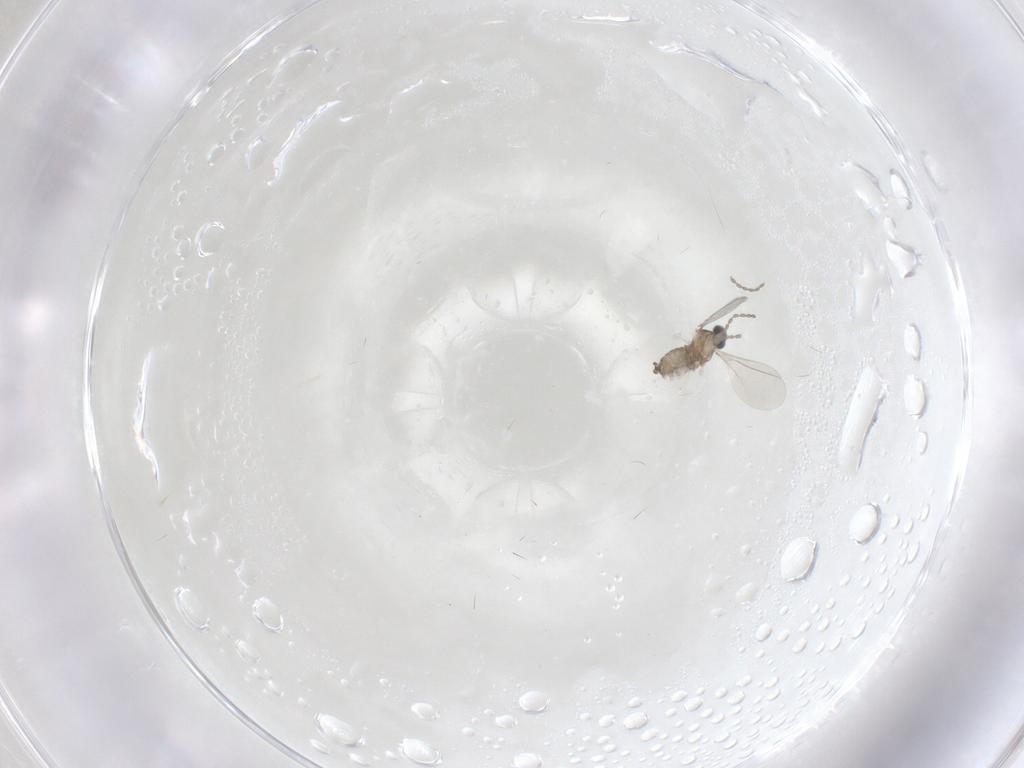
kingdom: Animalia
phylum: Arthropoda
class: Insecta
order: Diptera
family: Cecidomyiidae
